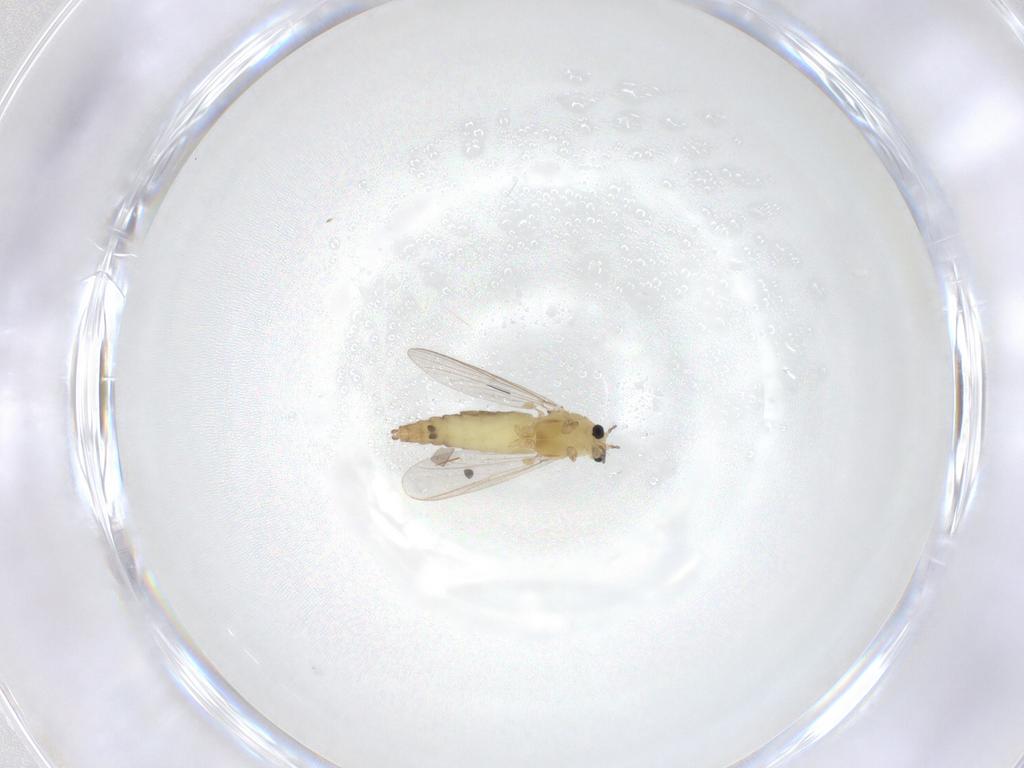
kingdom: Animalia
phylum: Arthropoda
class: Insecta
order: Diptera
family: Chironomidae
